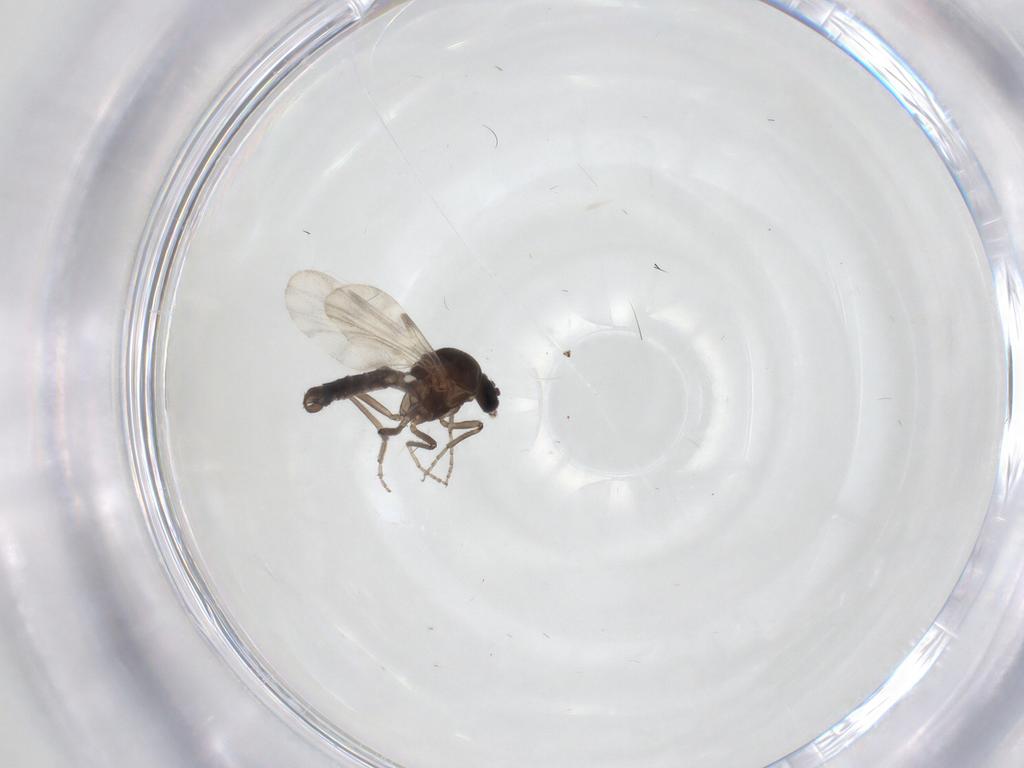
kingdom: Animalia
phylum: Arthropoda
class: Insecta
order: Diptera
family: Ceratopogonidae
